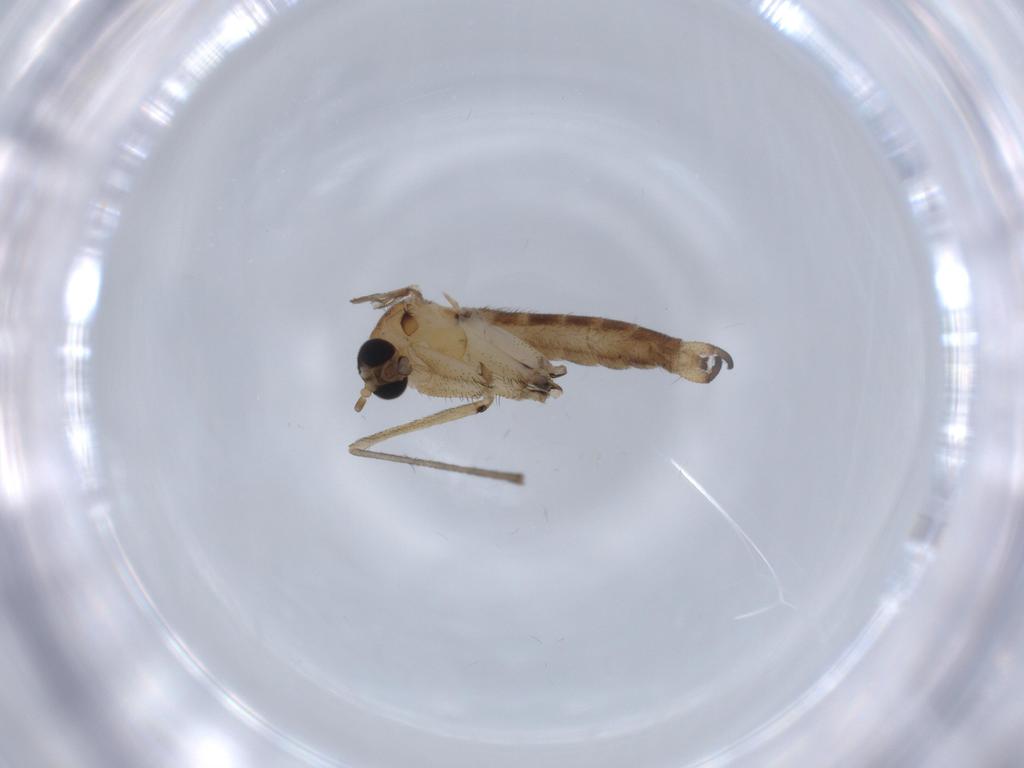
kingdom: Animalia
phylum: Arthropoda
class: Insecta
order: Diptera
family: Sciaridae
